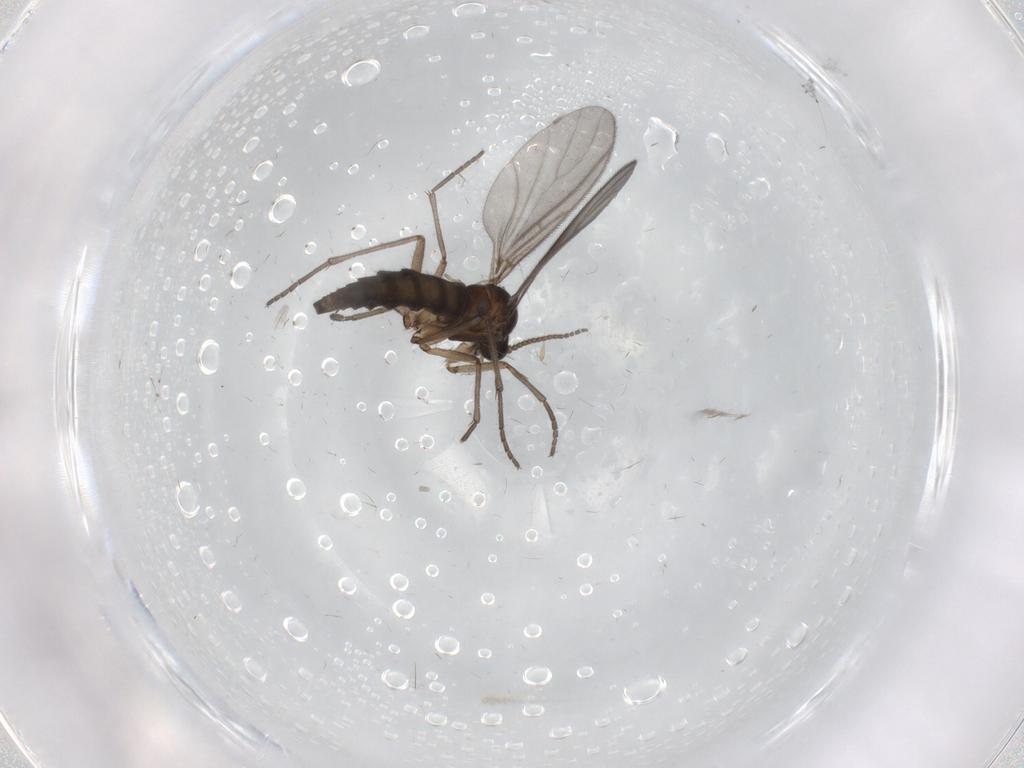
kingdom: Animalia
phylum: Arthropoda
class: Insecta
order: Diptera
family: Sciaridae
